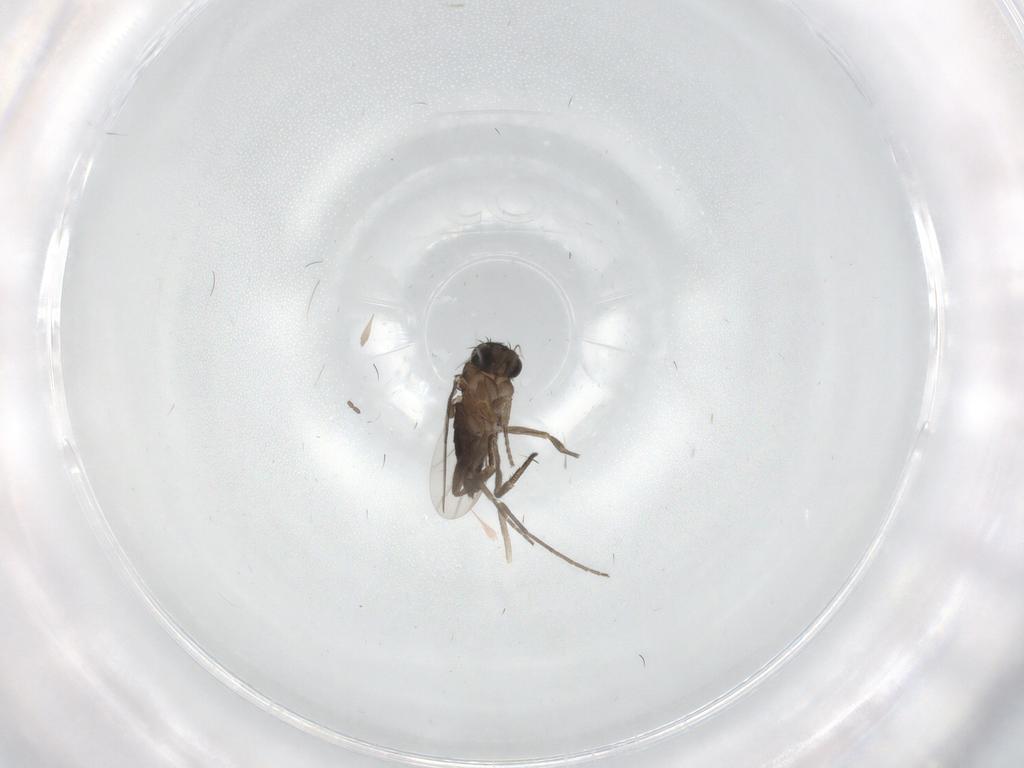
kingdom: Animalia
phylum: Arthropoda
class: Insecta
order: Diptera
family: Phoridae
